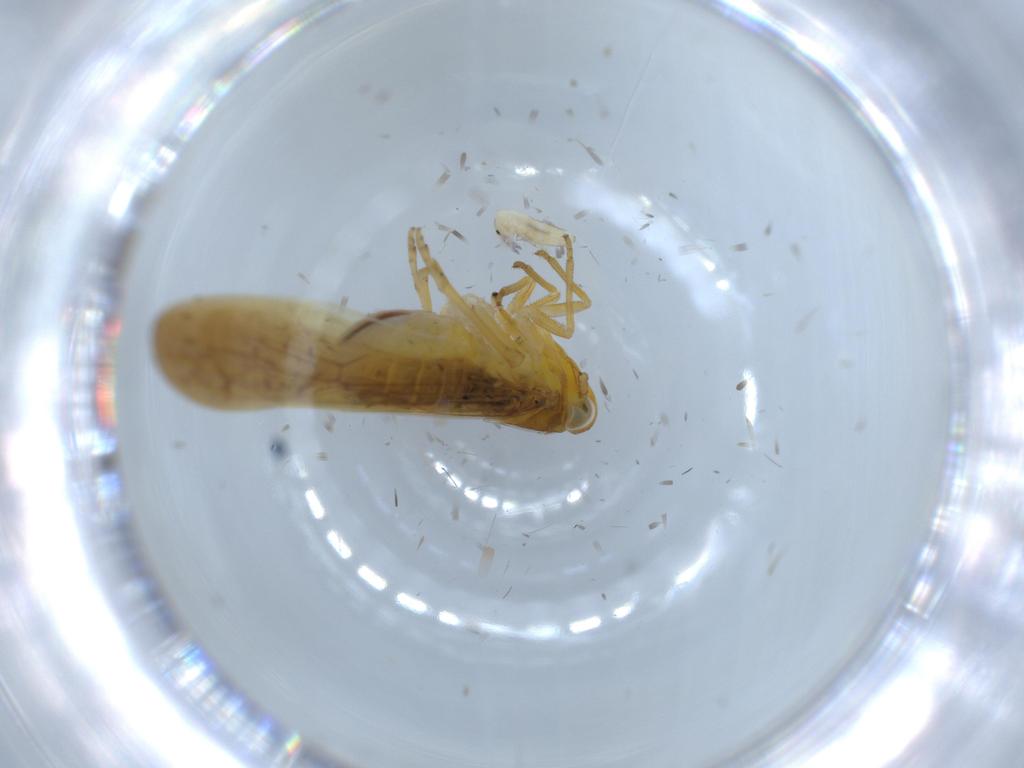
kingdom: Animalia
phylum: Arthropoda
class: Insecta
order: Hemiptera
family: Delphacidae
